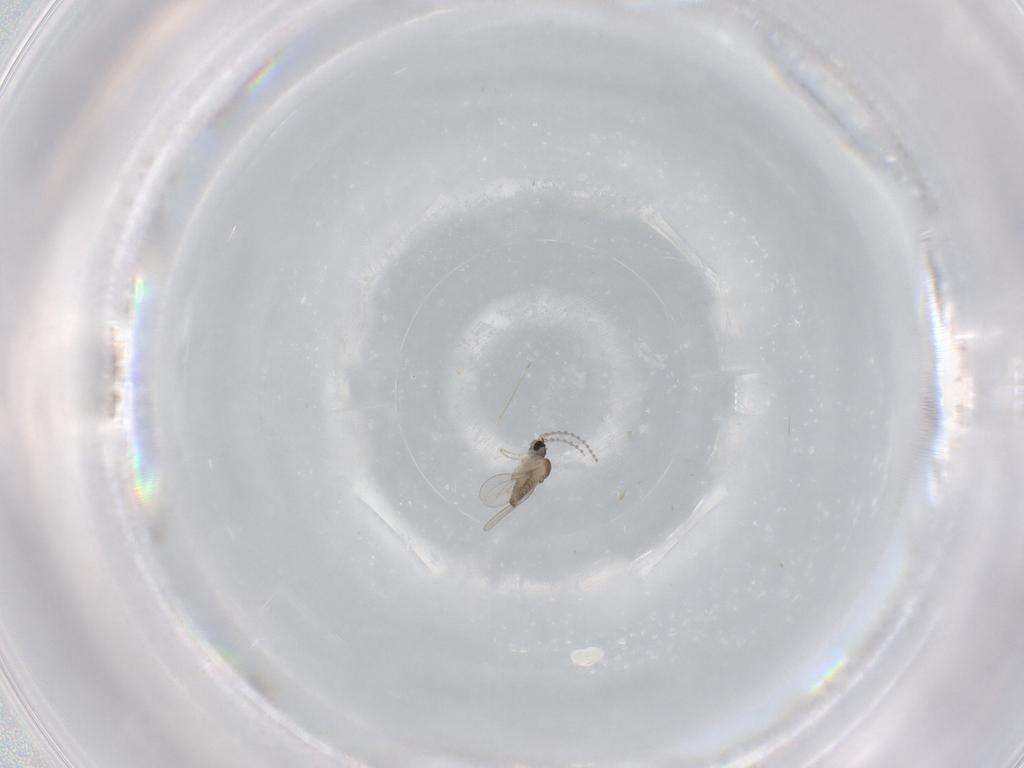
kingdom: Animalia
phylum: Arthropoda
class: Insecta
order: Diptera
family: Cecidomyiidae
